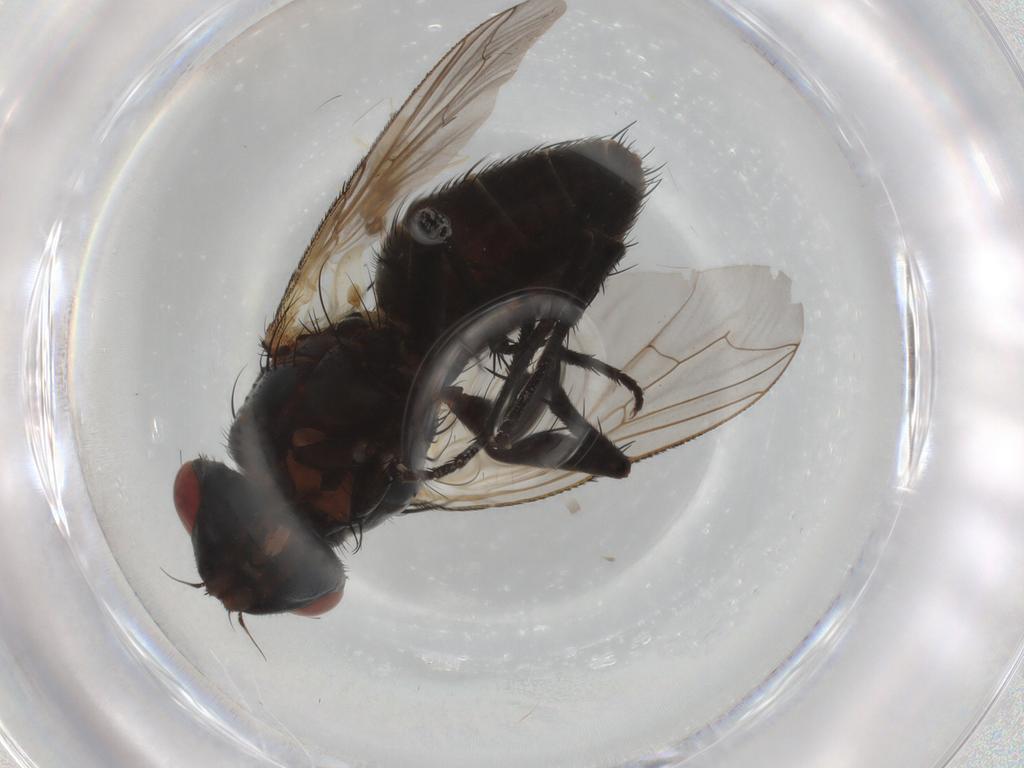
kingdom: Animalia
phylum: Arthropoda
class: Insecta
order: Diptera
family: Cecidomyiidae
